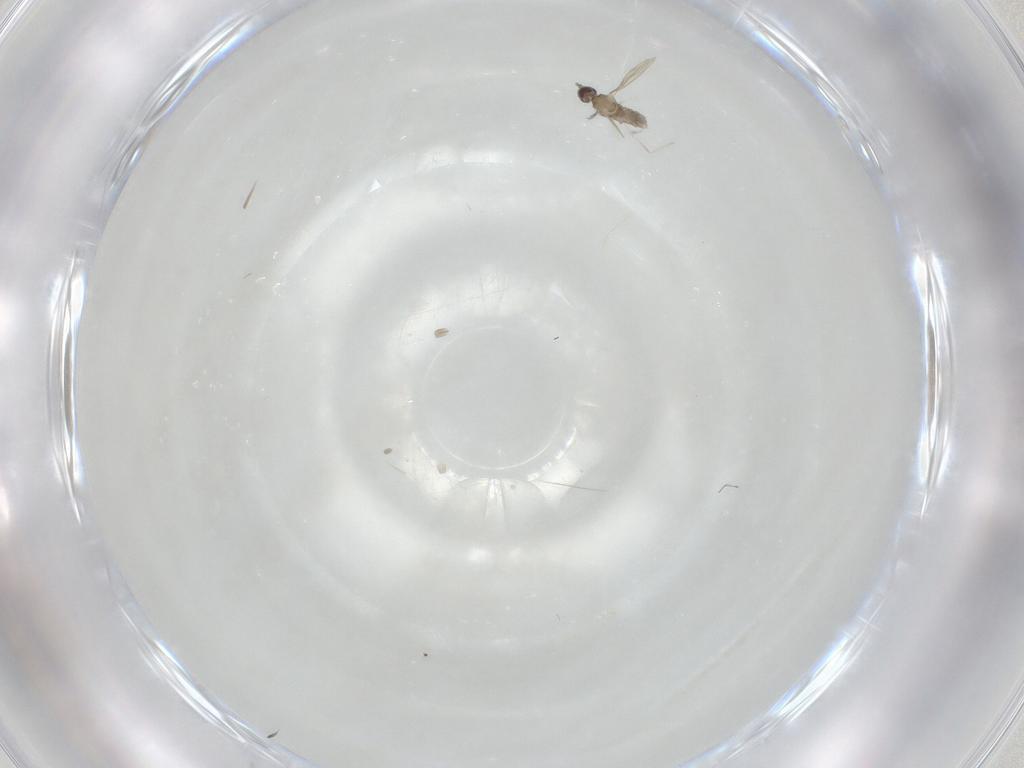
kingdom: Animalia
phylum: Arthropoda
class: Insecta
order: Diptera
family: Chironomidae
